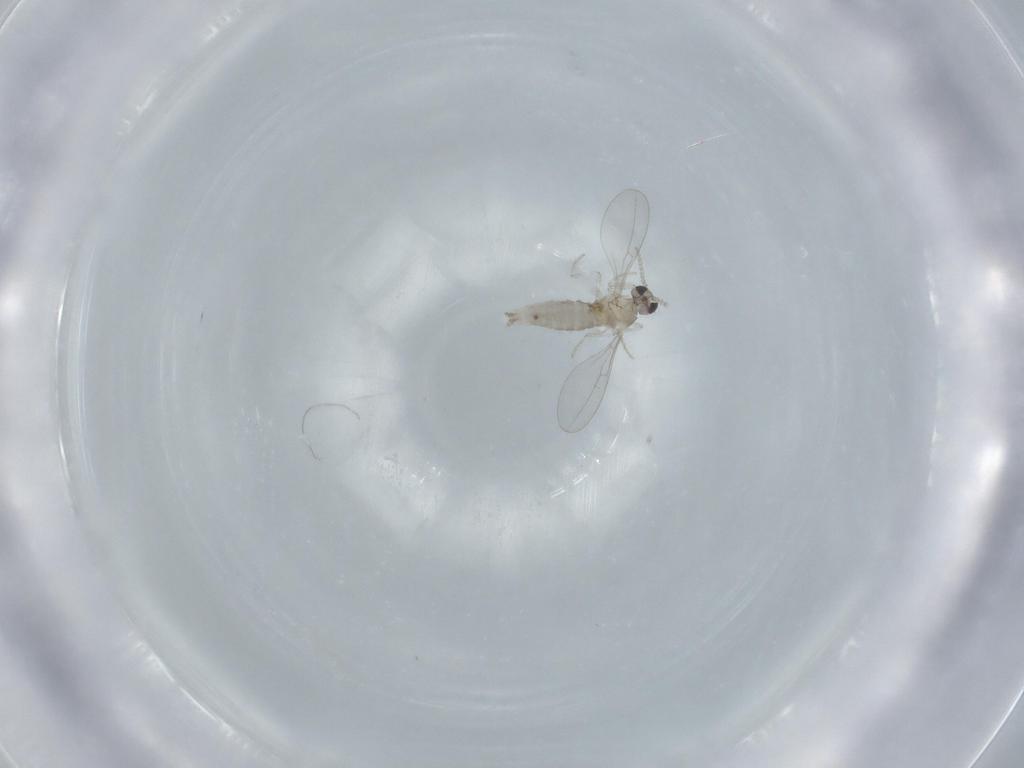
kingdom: Animalia
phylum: Arthropoda
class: Insecta
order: Diptera
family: Cecidomyiidae
